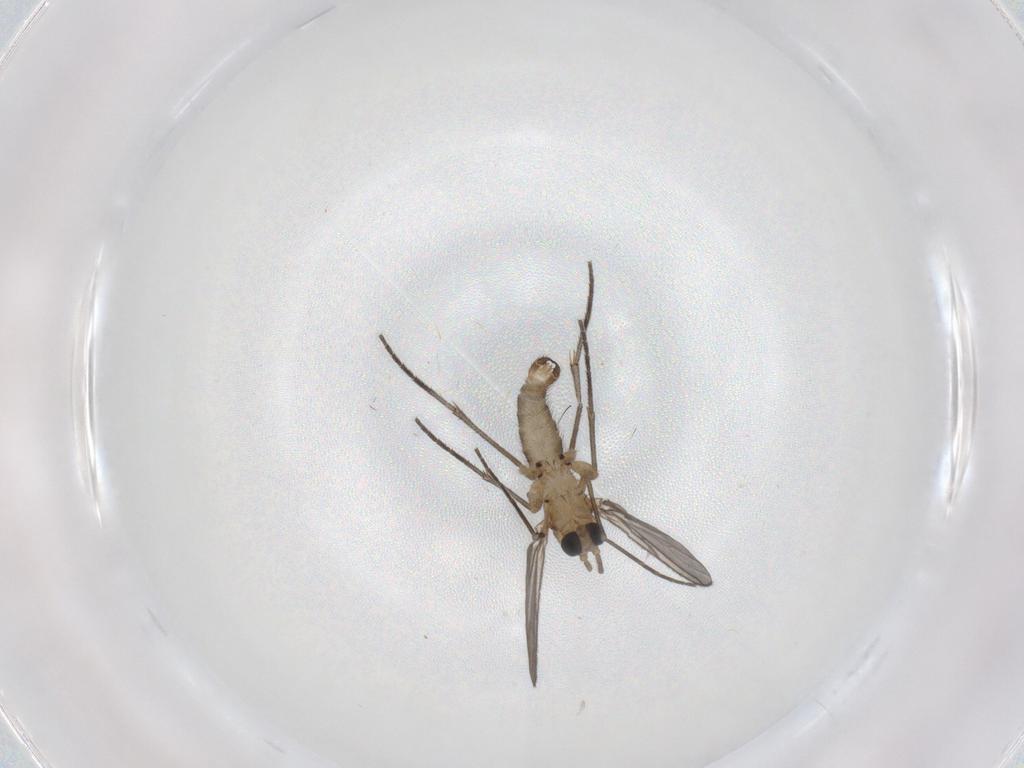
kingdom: Animalia
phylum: Arthropoda
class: Insecta
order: Diptera
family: Sciaridae
